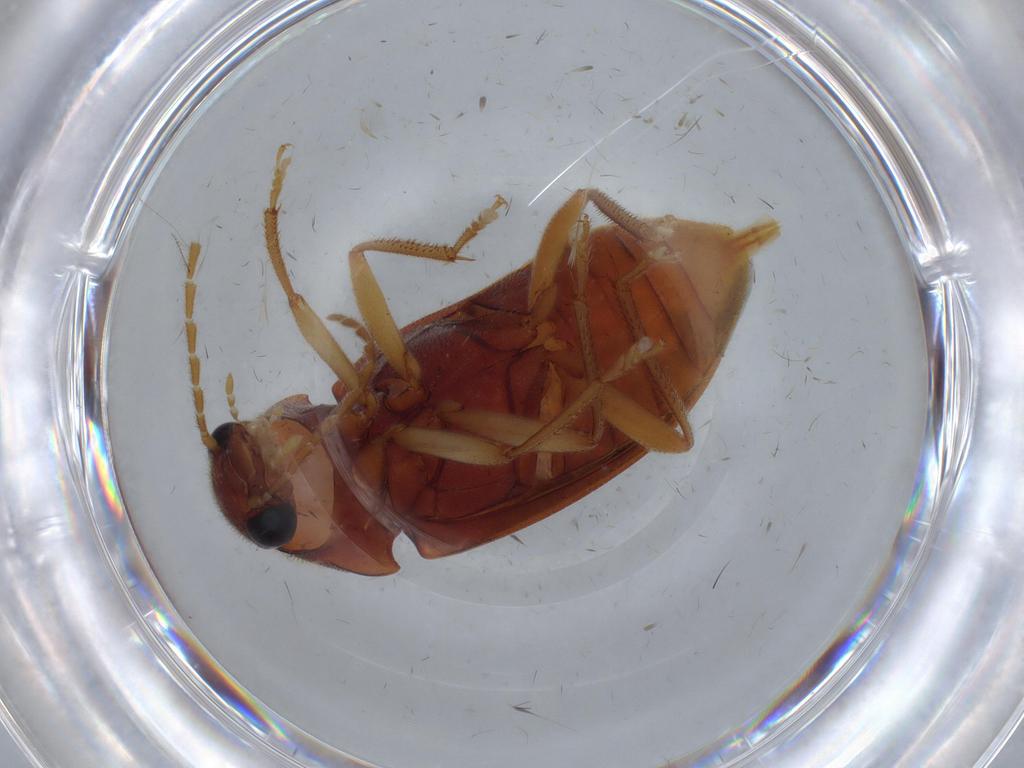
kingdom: Animalia
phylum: Arthropoda
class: Insecta
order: Coleoptera
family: Ptilodactylidae
